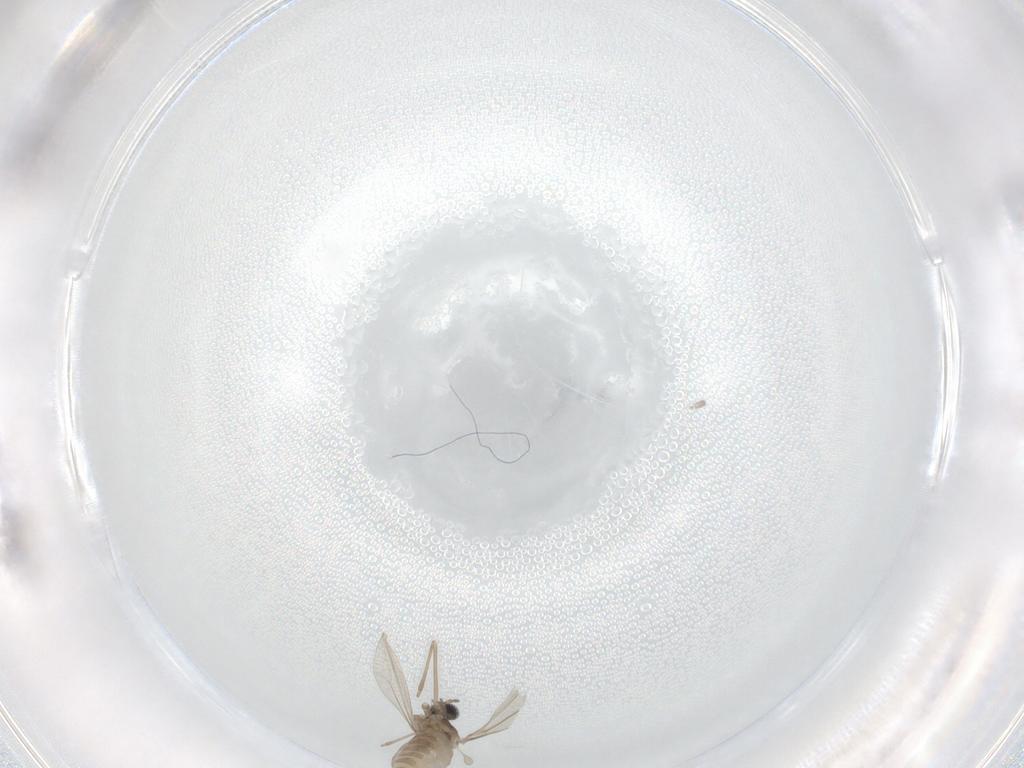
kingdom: Animalia
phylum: Arthropoda
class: Insecta
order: Diptera
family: Cecidomyiidae
